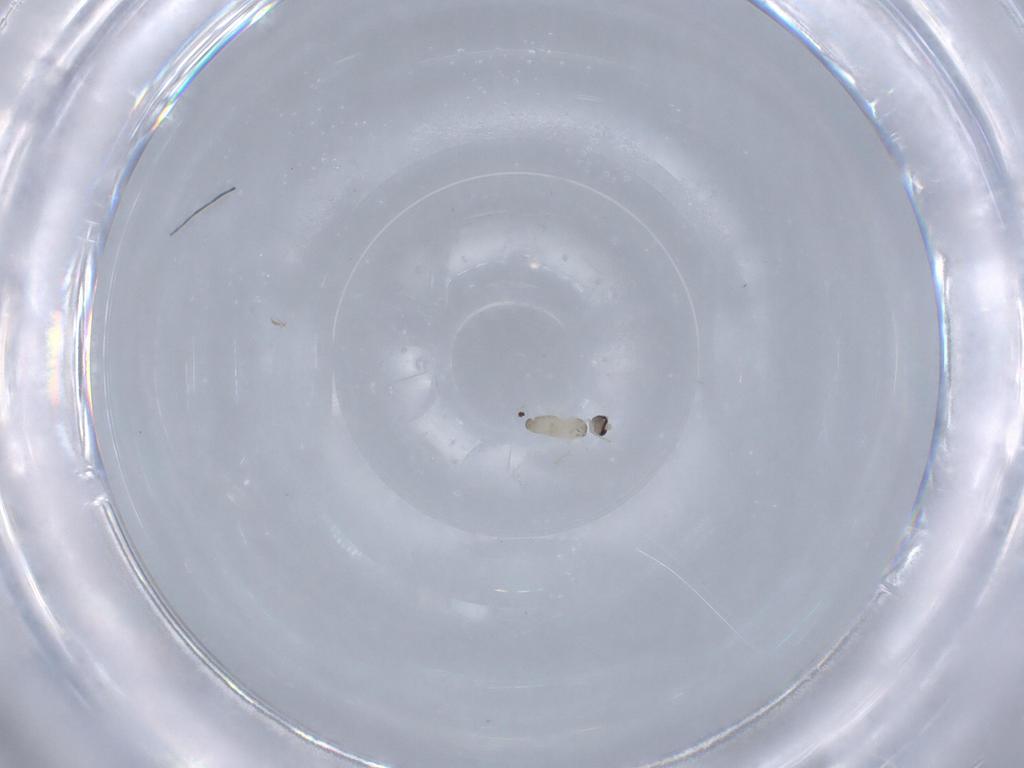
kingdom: Animalia
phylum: Arthropoda
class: Insecta
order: Diptera
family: Cecidomyiidae
